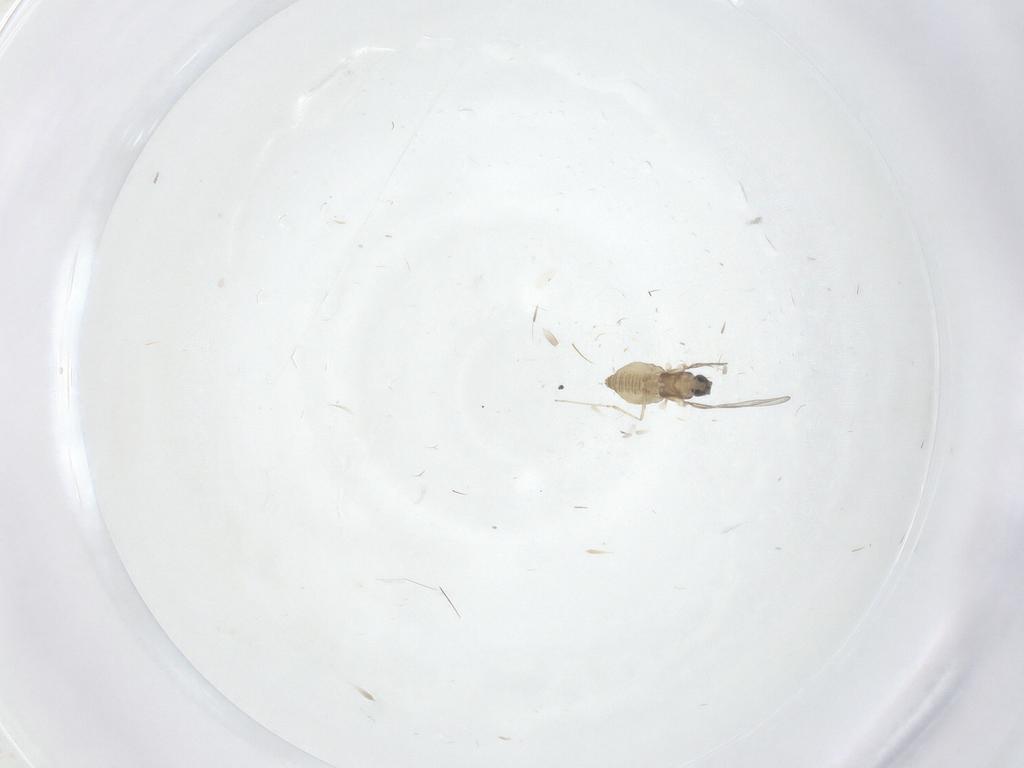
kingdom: Animalia
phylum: Arthropoda
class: Insecta
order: Diptera
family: Cecidomyiidae
